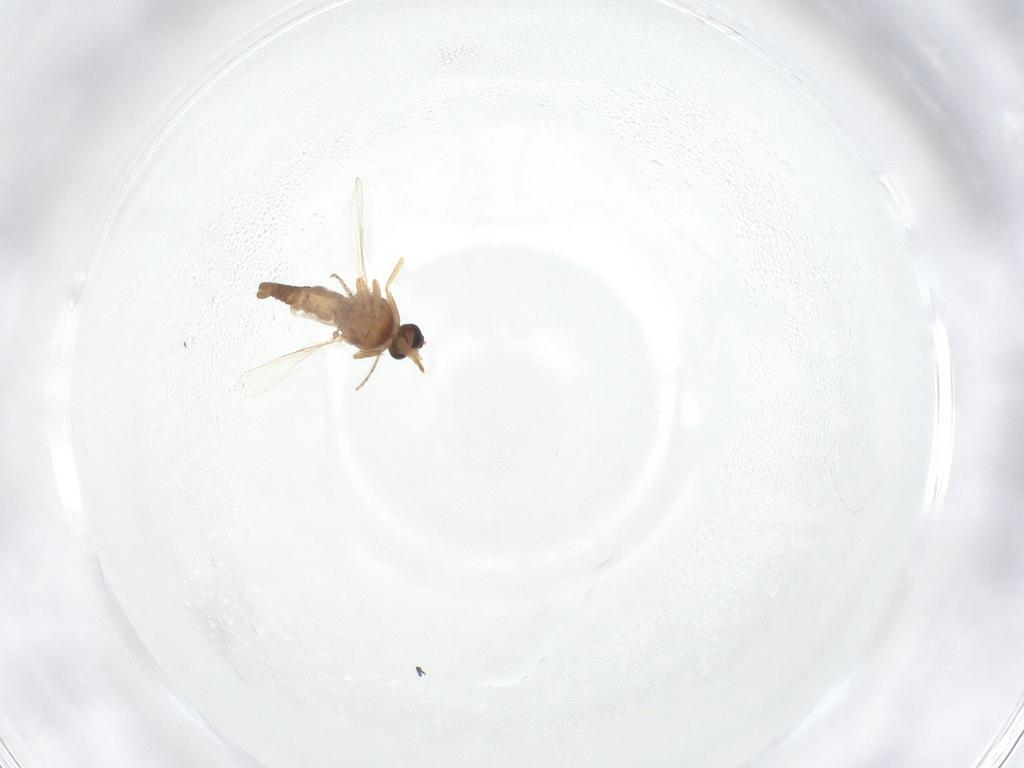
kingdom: Animalia
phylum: Arthropoda
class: Insecta
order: Diptera
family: Ceratopogonidae
